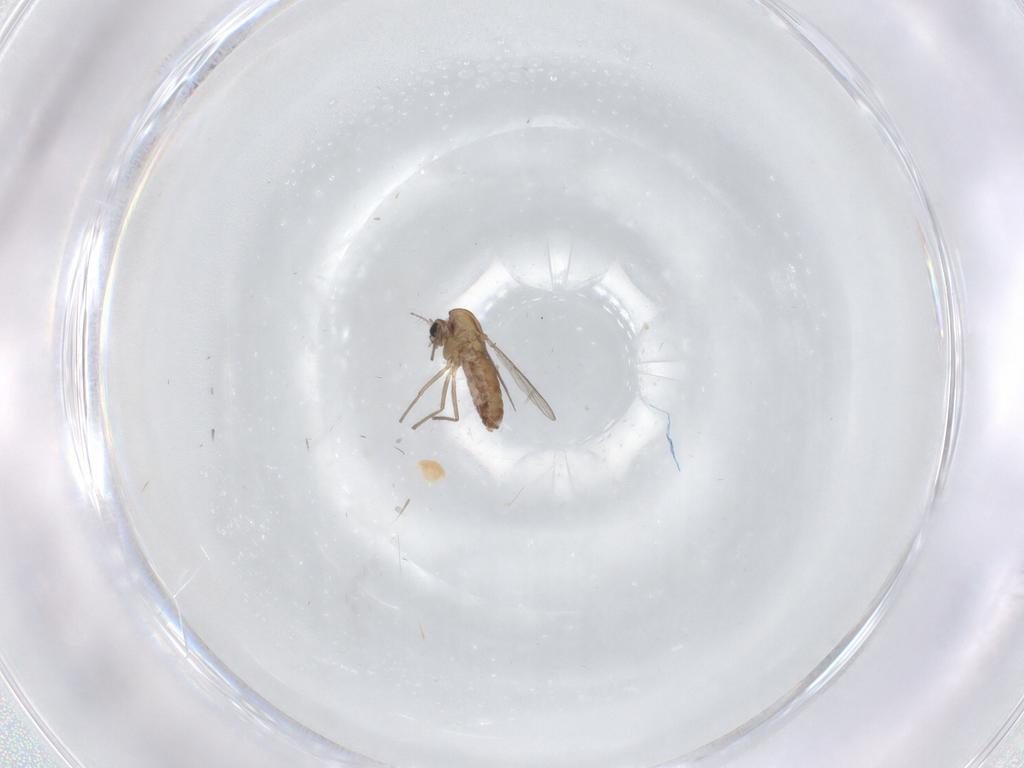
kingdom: Animalia
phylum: Arthropoda
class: Insecta
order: Diptera
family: Chironomidae
